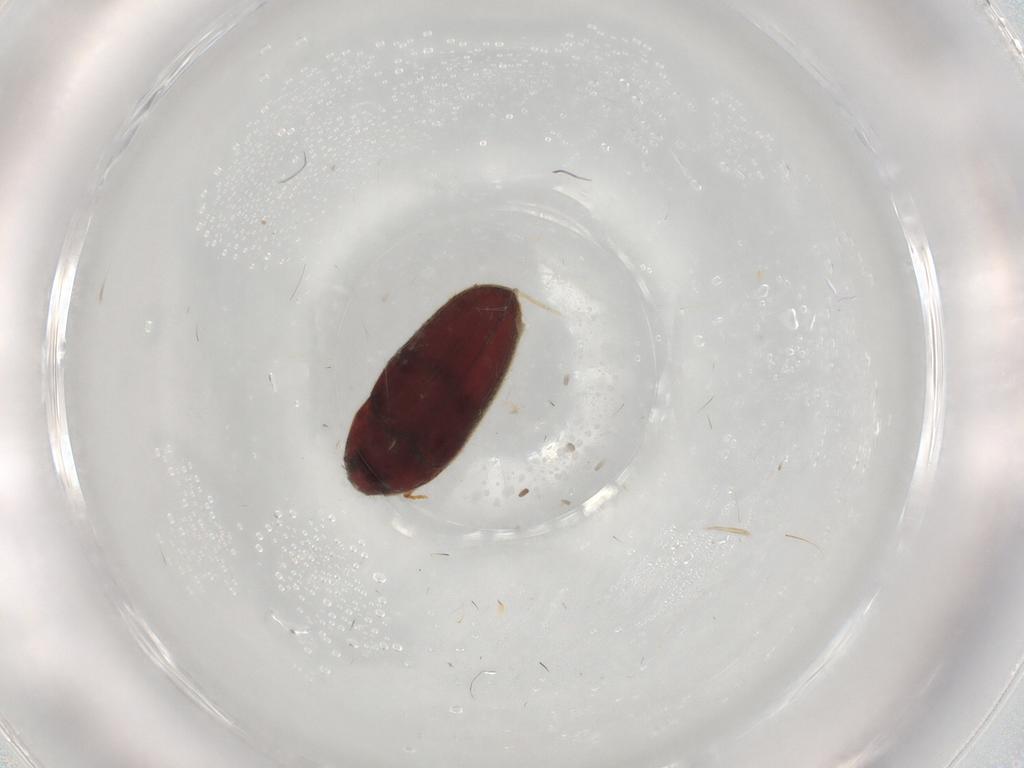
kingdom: Animalia
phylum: Arthropoda
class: Insecta
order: Coleoptera
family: Throscidae
